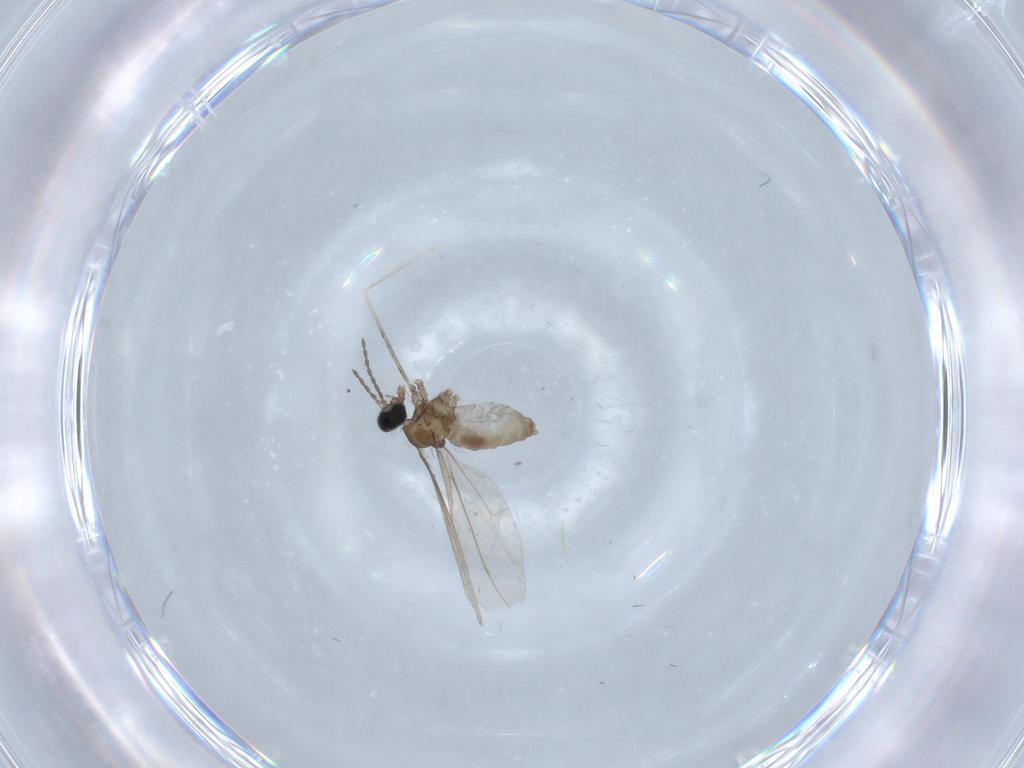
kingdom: Animalia
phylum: Arthropoda
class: Insecta
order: Diptera
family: Cecidomyiidae
